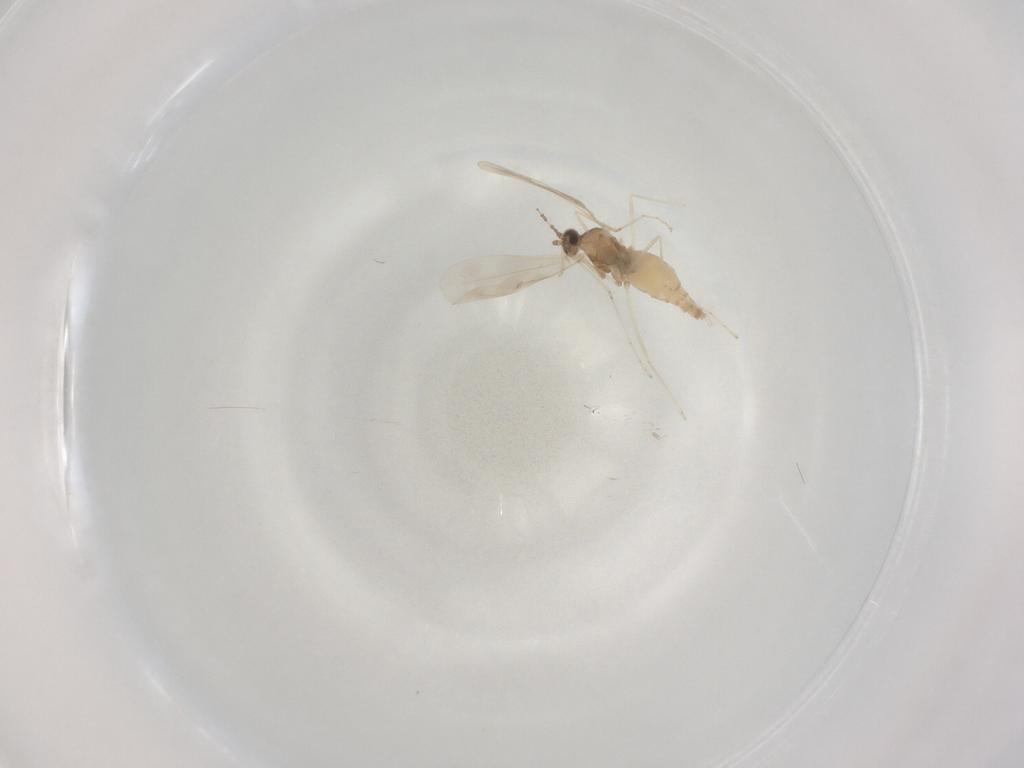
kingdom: Animalia
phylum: Arthropoda
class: Insecta
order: Diptera
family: Cecidomyiidae
